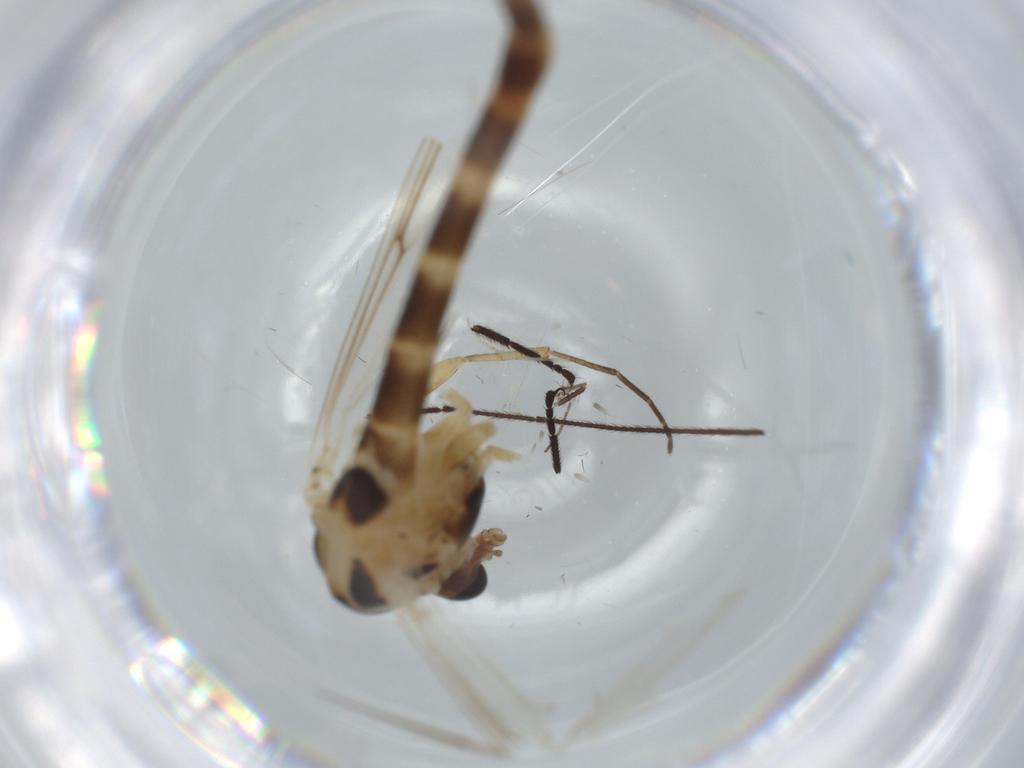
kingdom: Animalia
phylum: Arthropoda
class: Insecta
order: Diptera
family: Chironomidae
